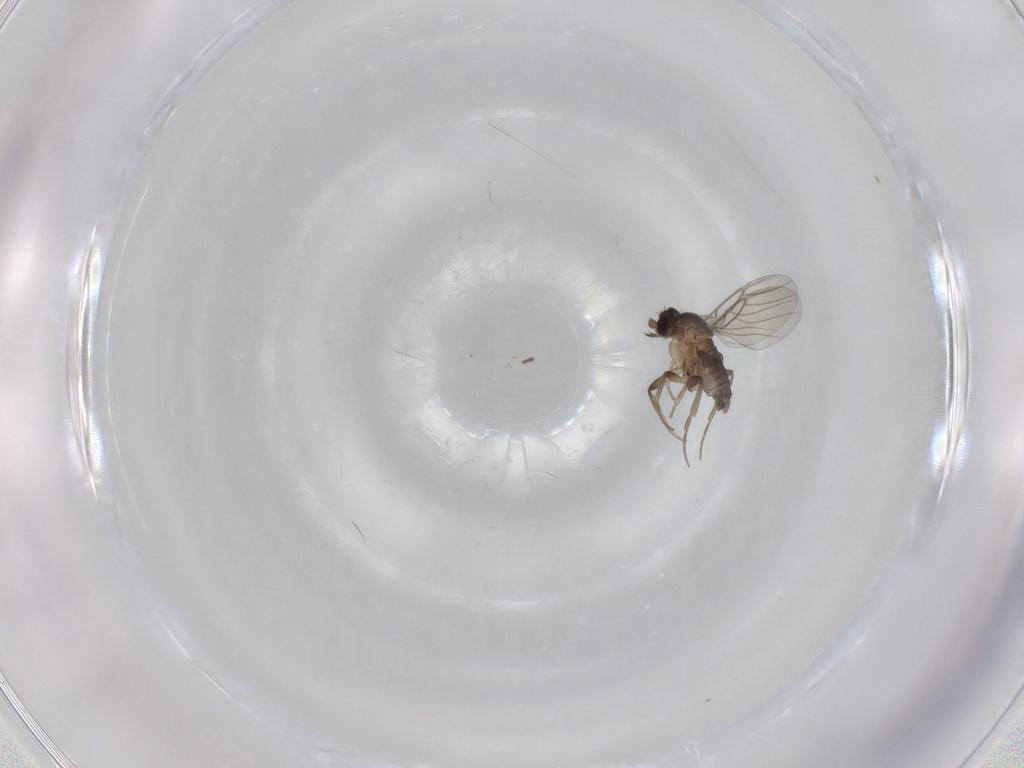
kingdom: Animalia
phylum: Arthropoda
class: Insecta
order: Diptera
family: Phoridae
